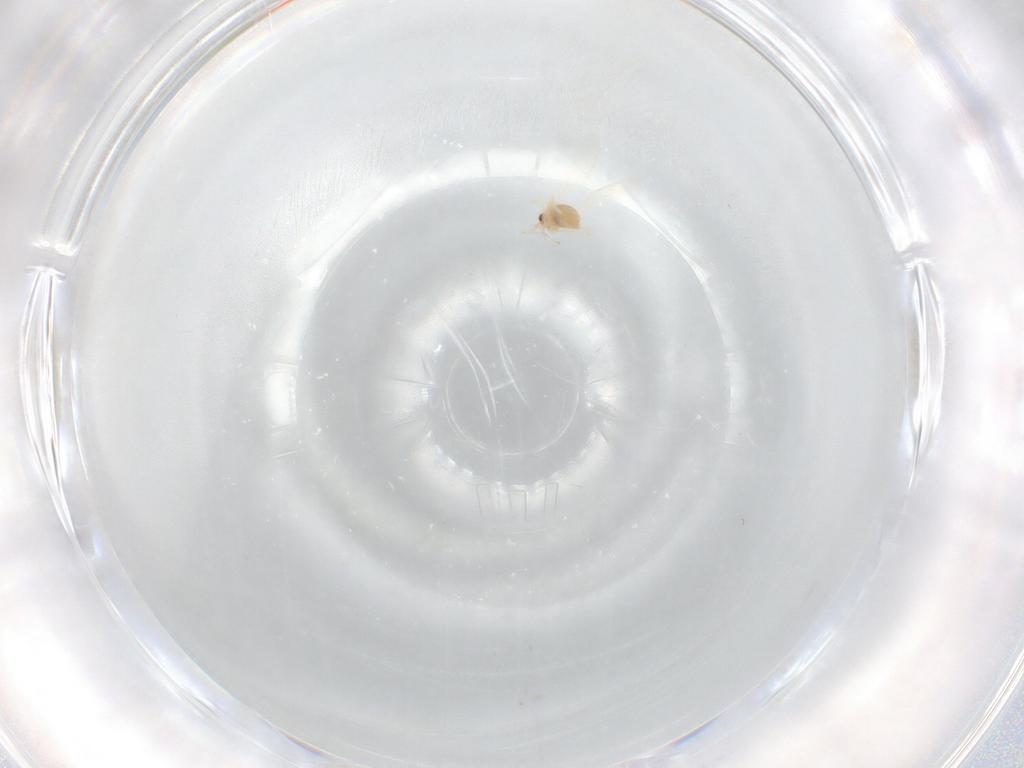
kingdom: Animalia
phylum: Arthropoda
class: Insecta
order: Diptera
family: Cecidomyiidae
